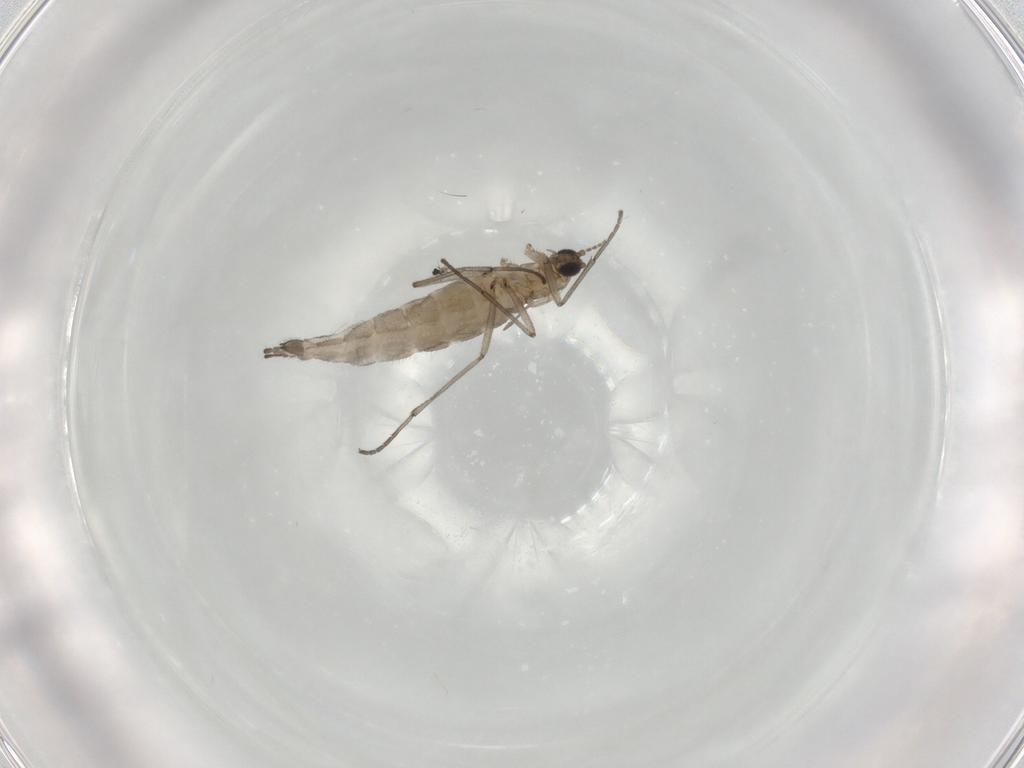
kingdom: Animalia
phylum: Arthropoda
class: Insecta
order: Diptera
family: Sciaridae
